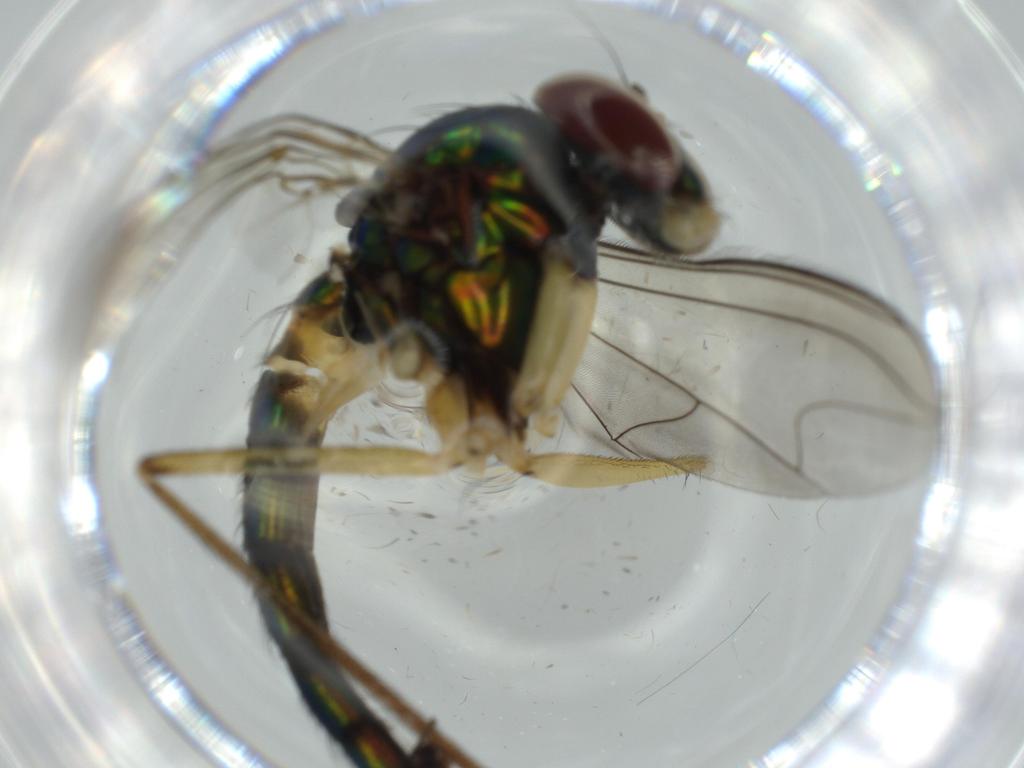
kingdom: Animalia
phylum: Arthropoda
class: Insecta
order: Diptera
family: Dolichopodidae
